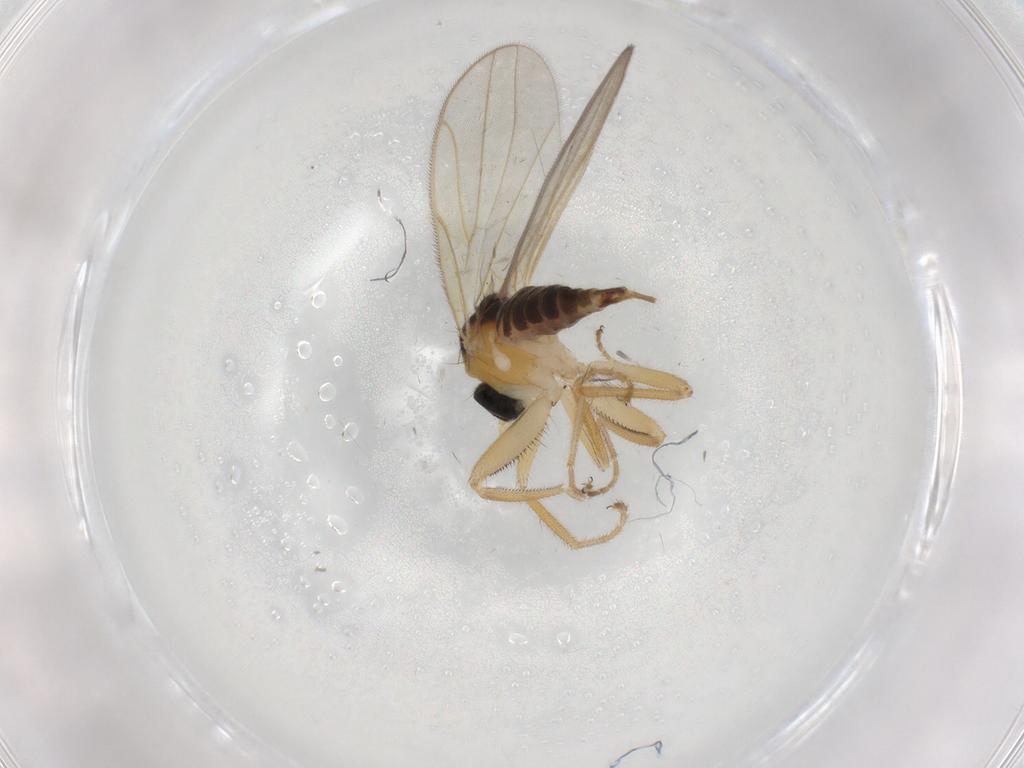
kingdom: Animalia
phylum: Arthropoda
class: Insecta
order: Diptera
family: Hybotidae
